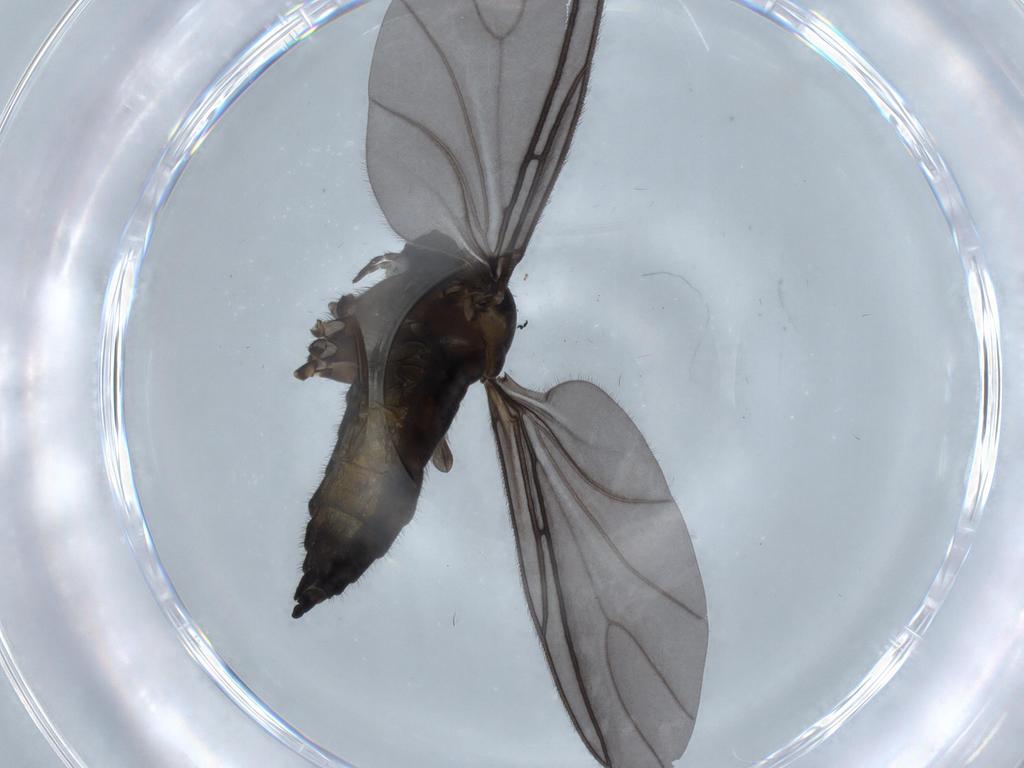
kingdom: Animalia
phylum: Arthropoda
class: Insecta
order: Diptera
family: Sciaridae
